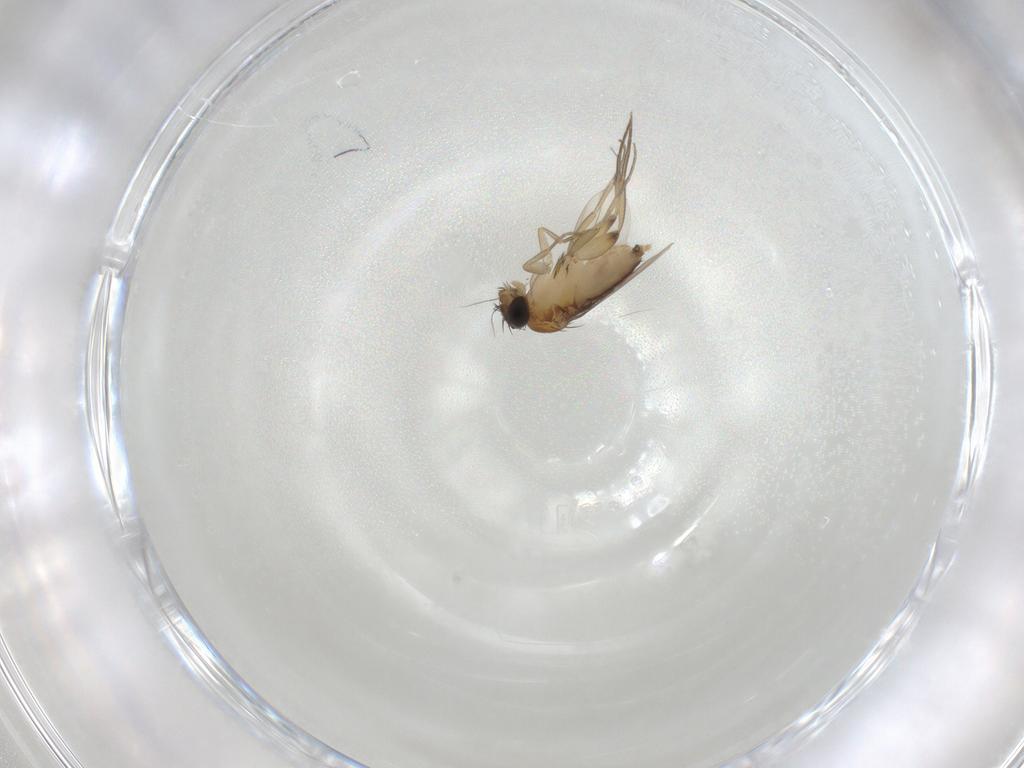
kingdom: Animalia
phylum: Arthropoda
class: Insecta
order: Diptera
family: Phoridae
